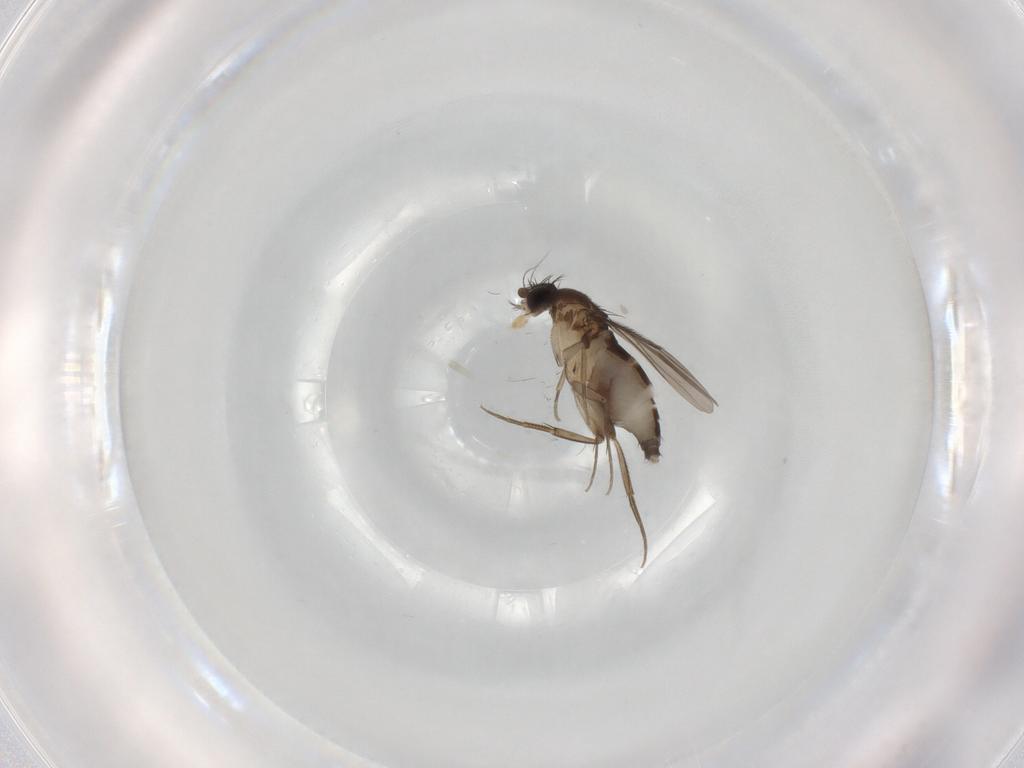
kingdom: Animalia
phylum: Arthropoda
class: Insecta
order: Diptera
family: Phoridae
